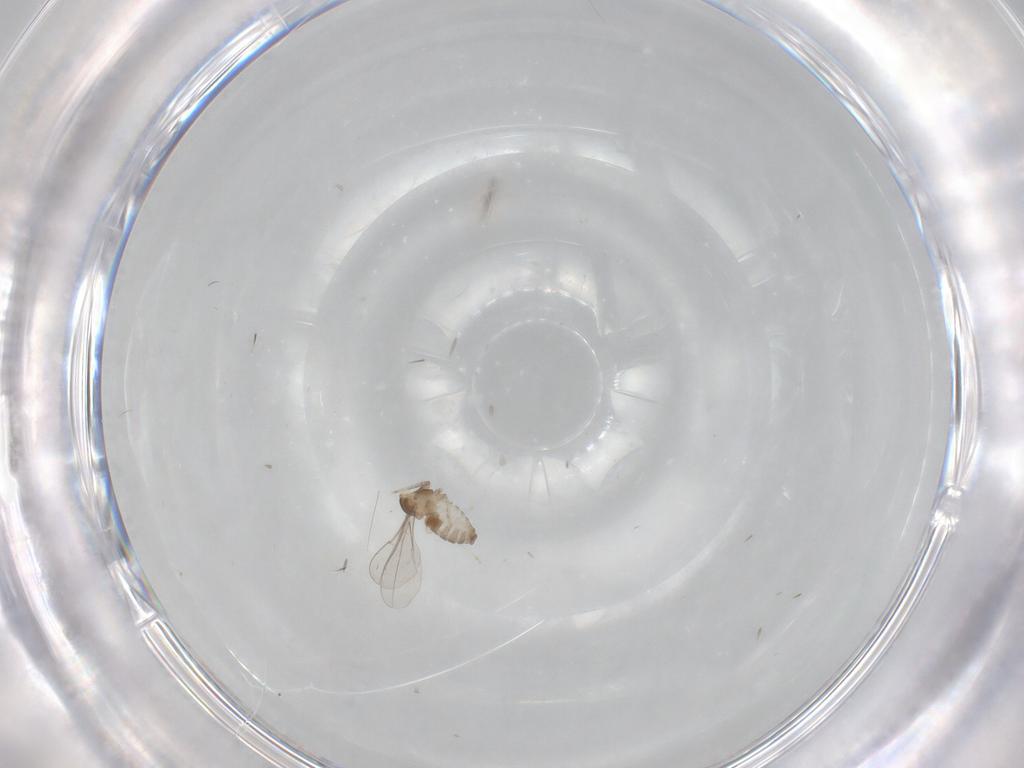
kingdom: Animalia
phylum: Arthropoda
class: Insecta
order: Diptera
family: Cecidomyiidae
